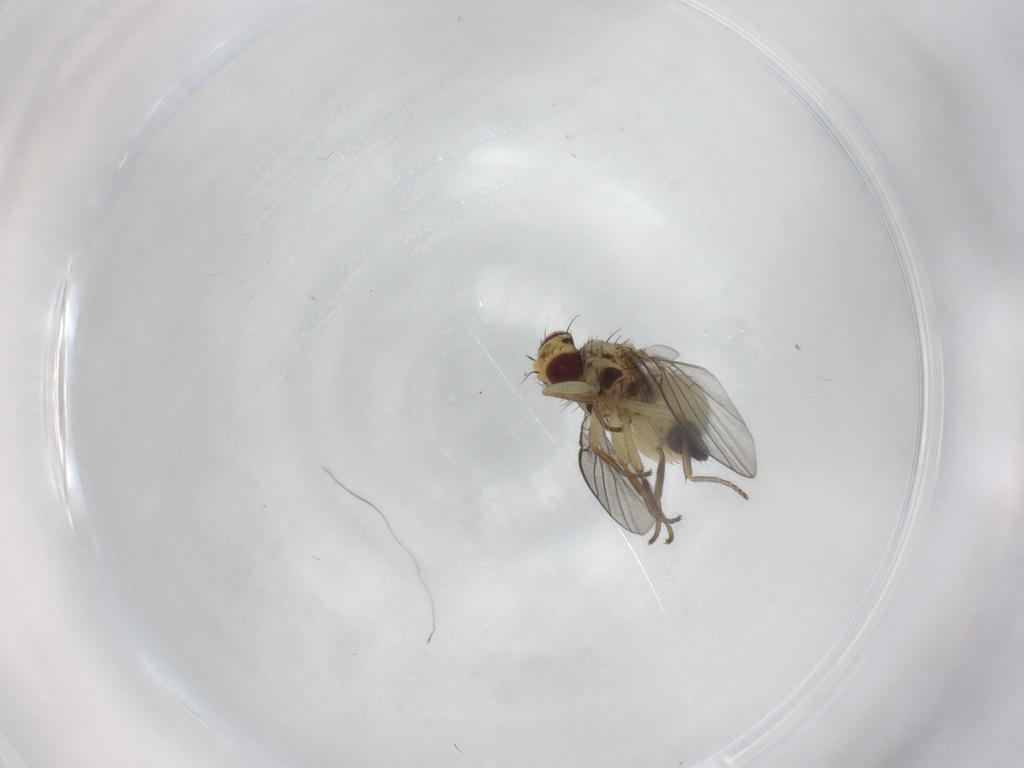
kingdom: Animalia
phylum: Arthropoda
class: Insecta
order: Diptera
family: Agromyzidae
